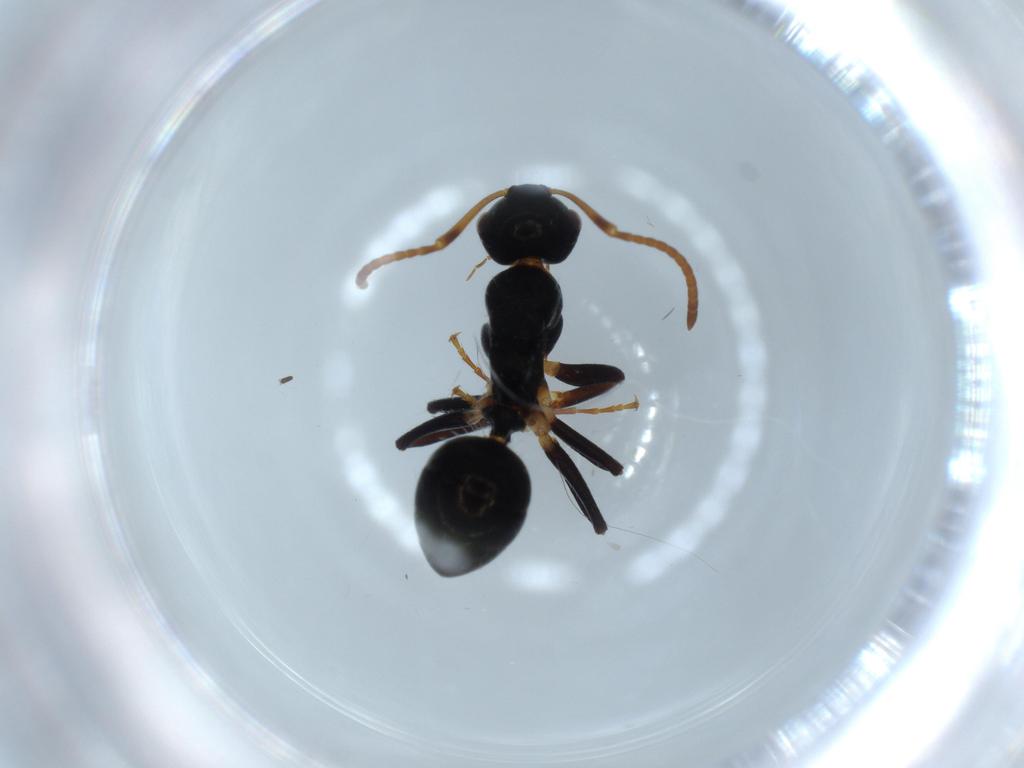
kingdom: Animalia
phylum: Arthropoda
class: Insecta
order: Hymenoptera
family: Formicidae
